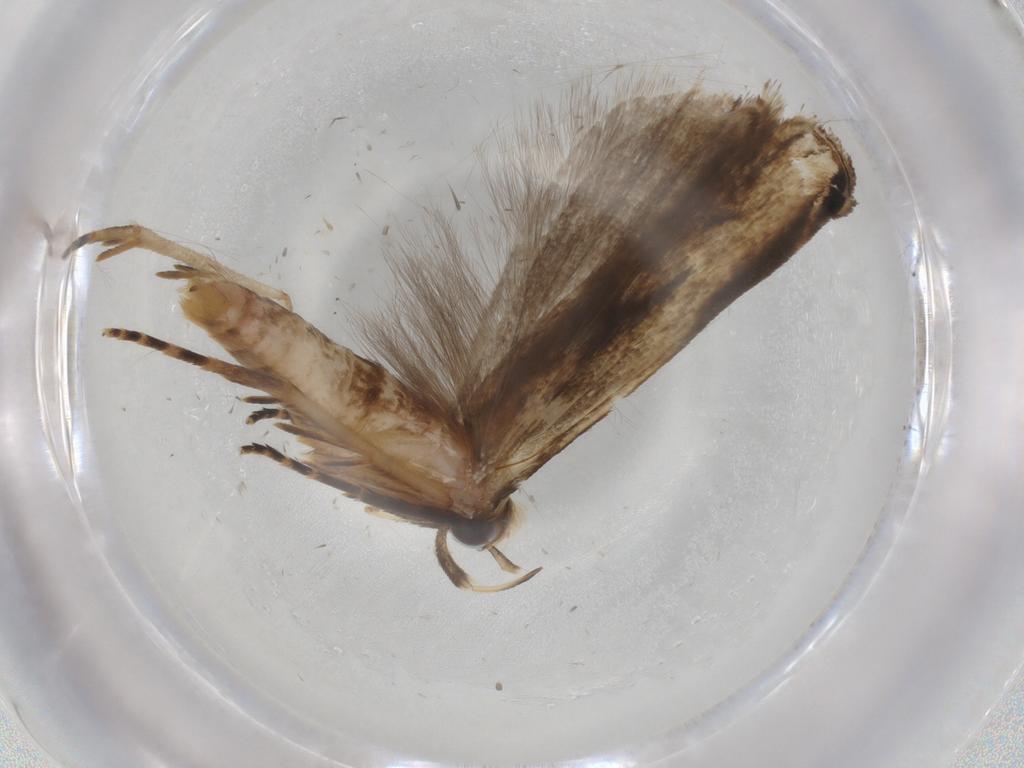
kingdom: Animalia
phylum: Arthropoda
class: Insecta
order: Lepidoptera
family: Gelechiidae
